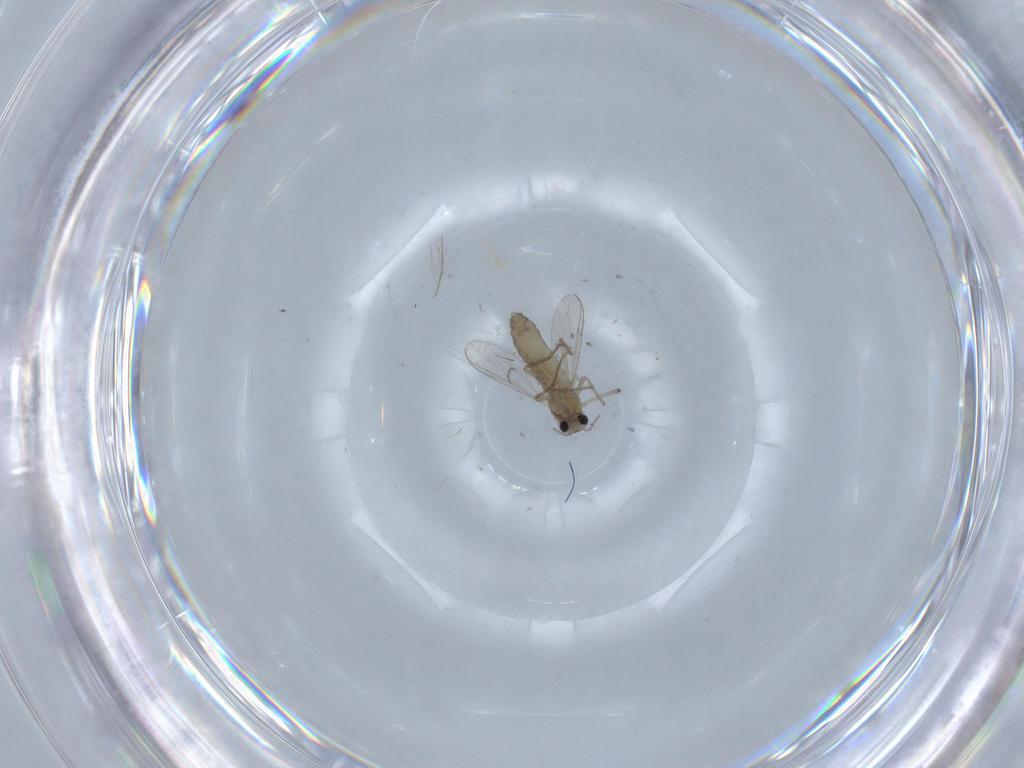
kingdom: Animalia
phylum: Arthropoda
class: Insecta
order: Diptera
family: Chironomidae
